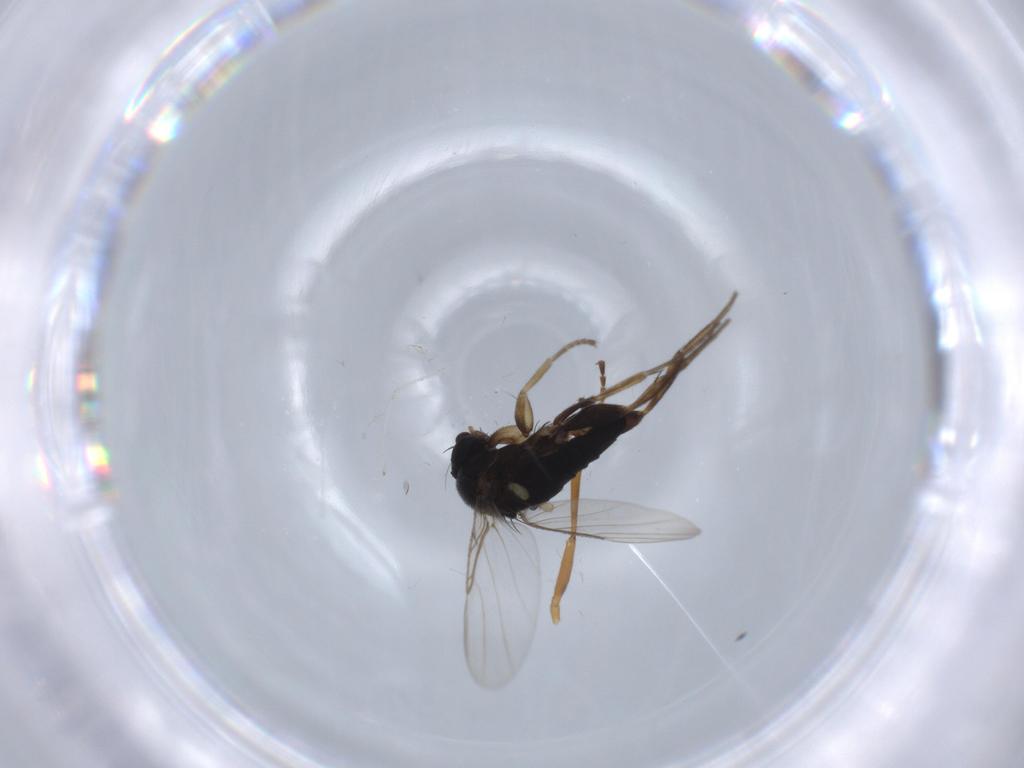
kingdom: Animalia
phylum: Arthropoda
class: Insecta
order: Diptera
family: Phoridae
